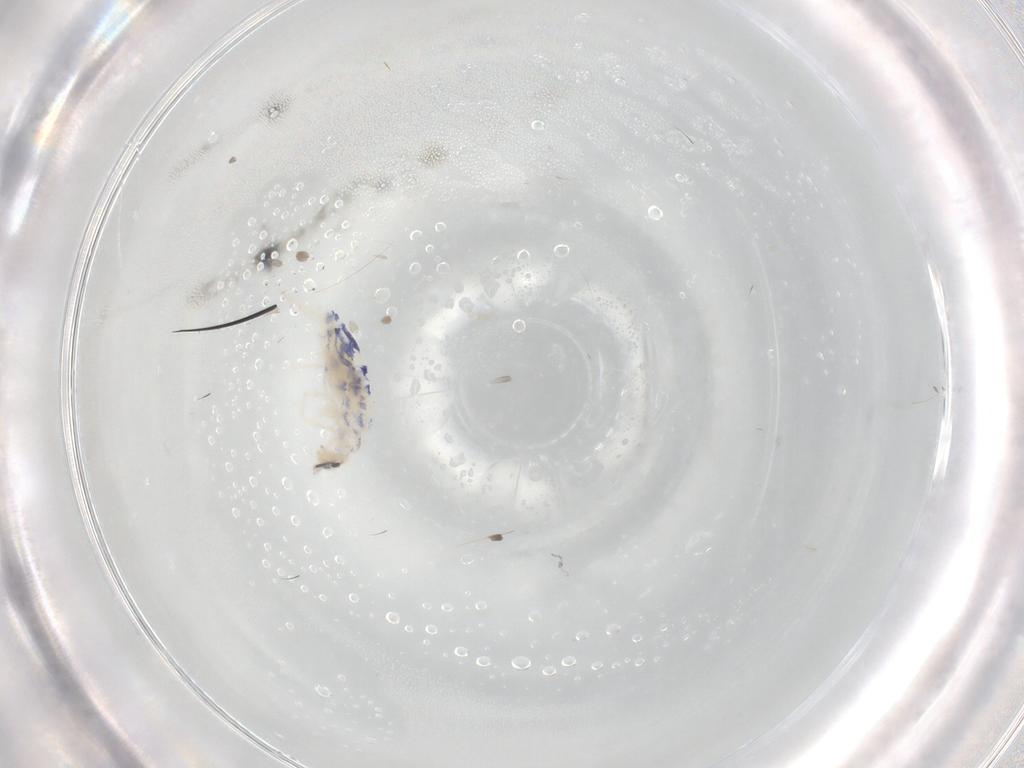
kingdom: Animalia
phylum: Arthropoda
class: Collembola
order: Entomobryomorpha
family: Entomobryidae
